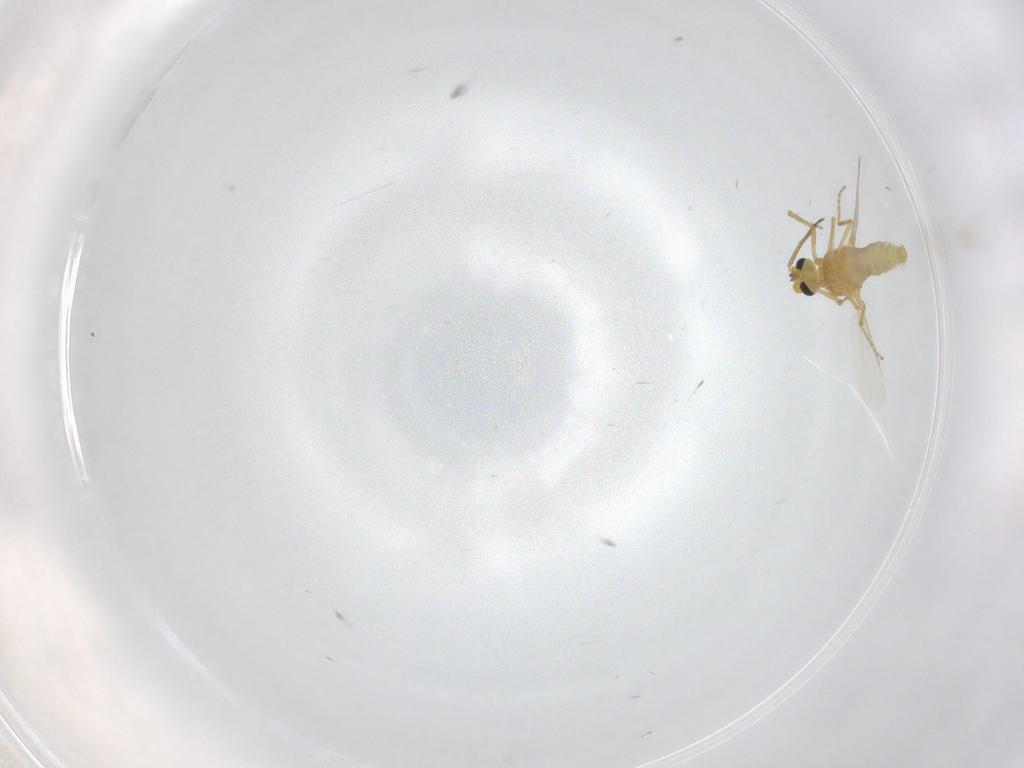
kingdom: Animalia
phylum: Arthropoda
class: Insecta
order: Diptera
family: Ceratopogonidae
